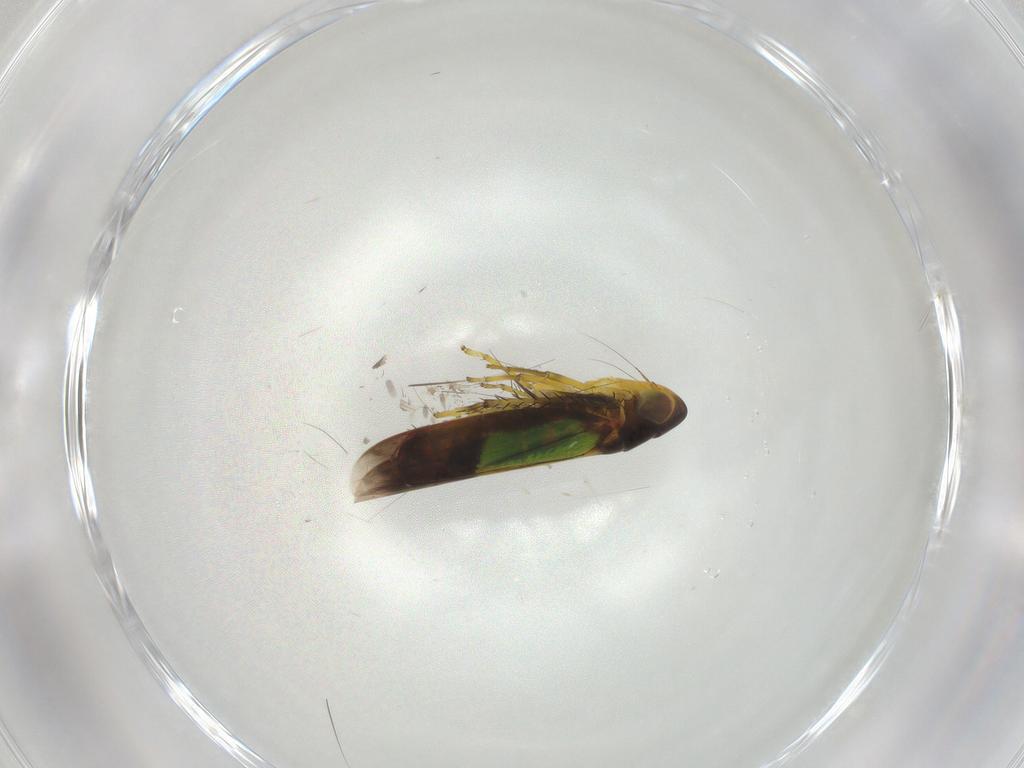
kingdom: Animalia
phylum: Arthropoda
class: Insecta
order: Hemiptera
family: Cicadellidae
